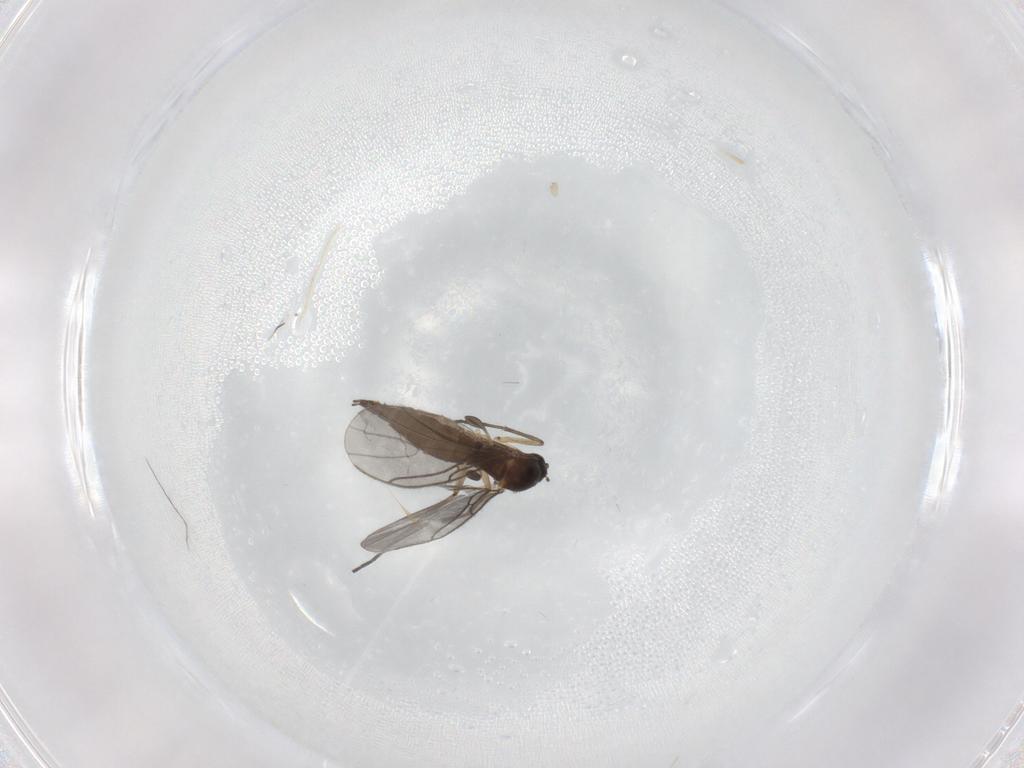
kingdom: Animalia
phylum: Arthropoda
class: Insecta
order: Diptera
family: Sciaridae
